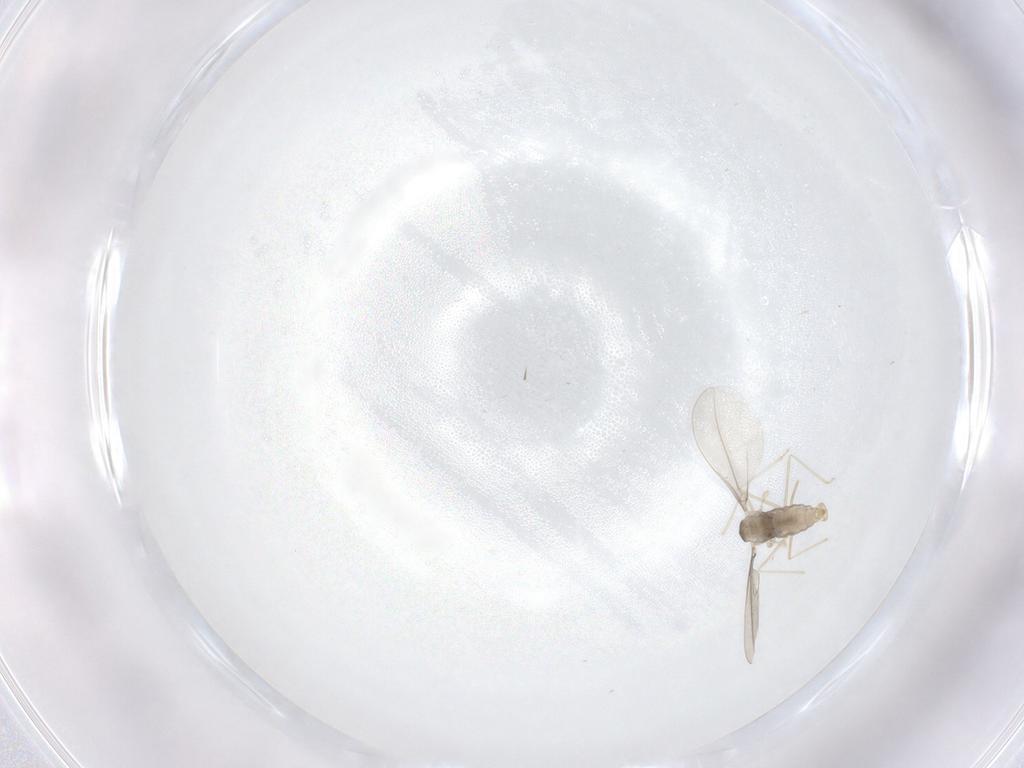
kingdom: Animalia
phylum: Arthropoda
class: Insecta
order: Diptera
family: Cecidomyiidae
